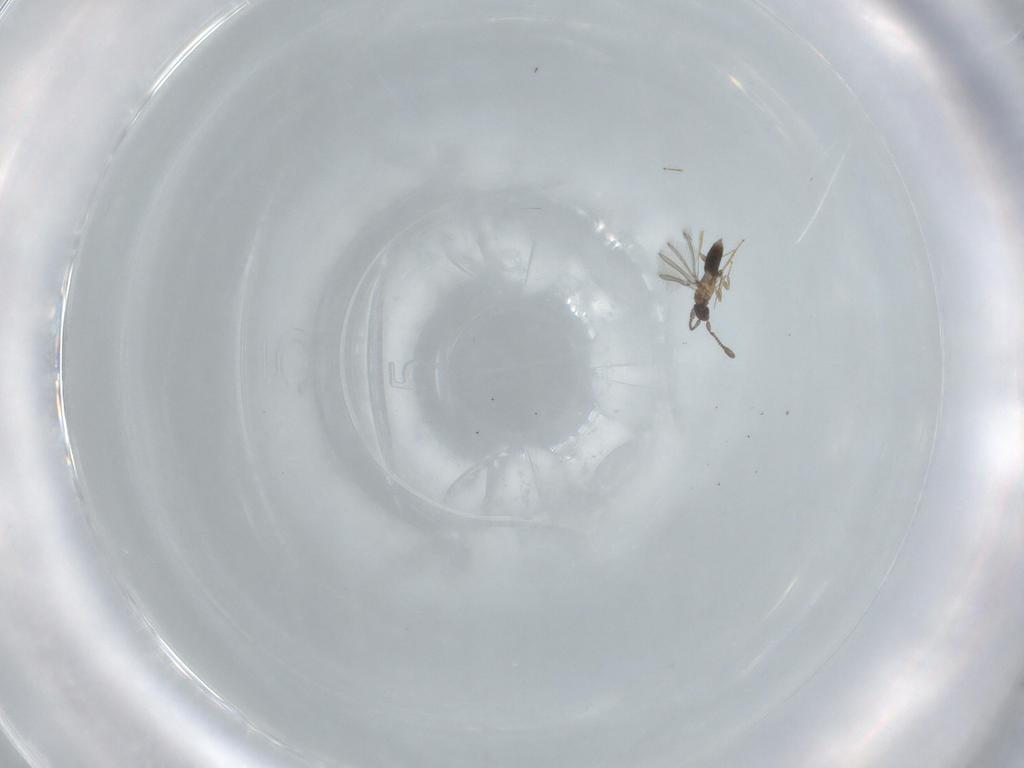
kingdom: Animalia
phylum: Arthropoda
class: Insecta
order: Hymenoptera
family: Mymaridae
